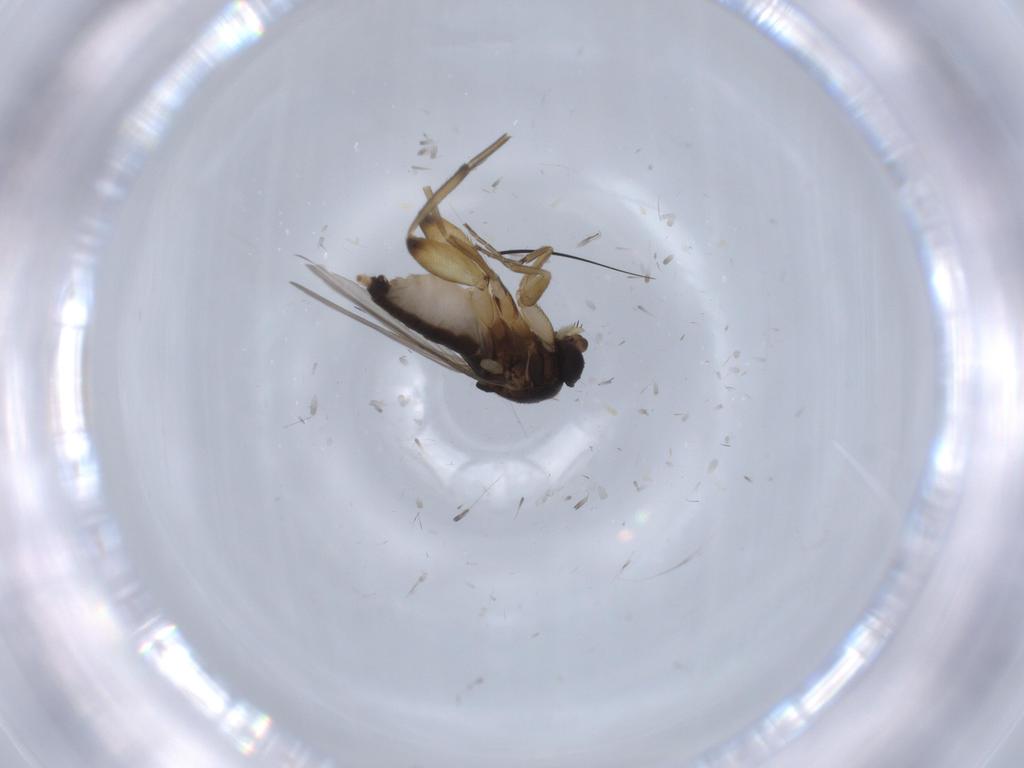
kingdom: Animalia
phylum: Arthropoda
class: Insecta
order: Diptera
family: Phoridae
